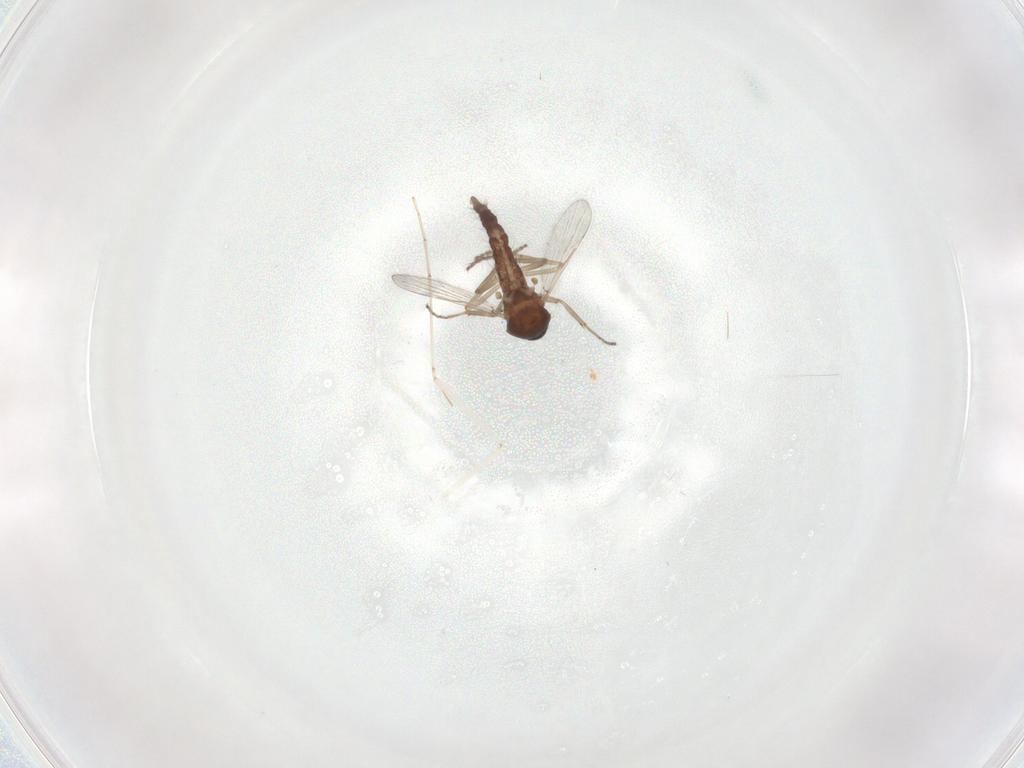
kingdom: Animalia
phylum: Arthropoda
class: Insecta
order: Diptera
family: Ceratopogonidae
